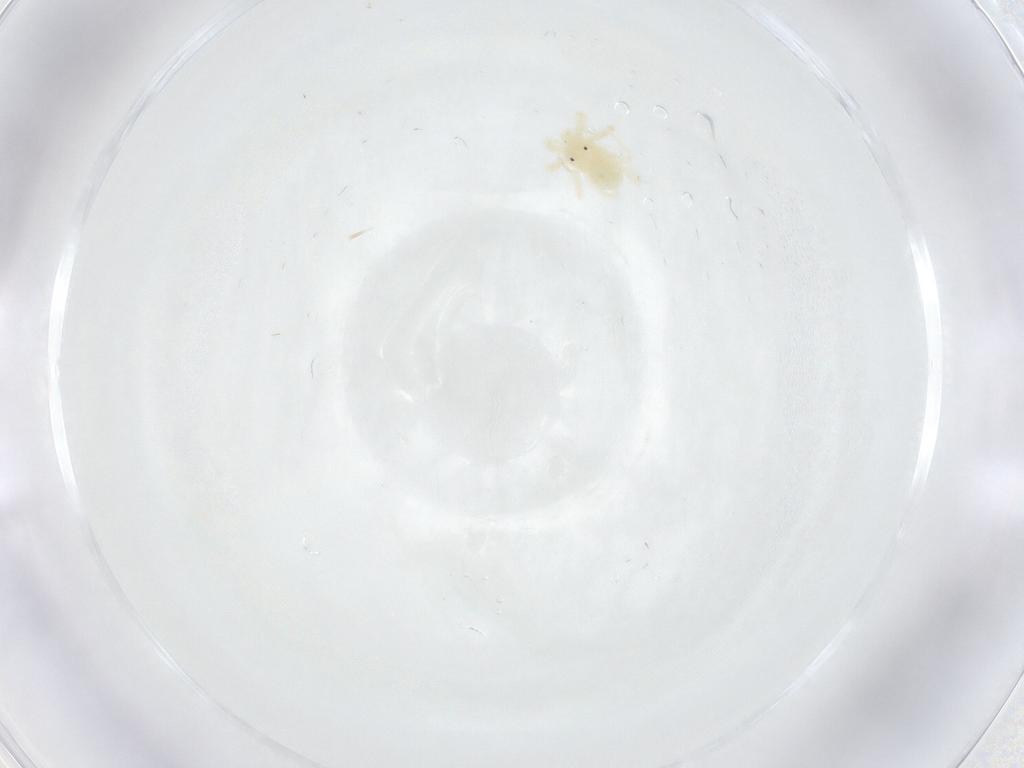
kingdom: Animalia
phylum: Arthropoda
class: Arachnida
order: Trombidiformes
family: Anystidae
